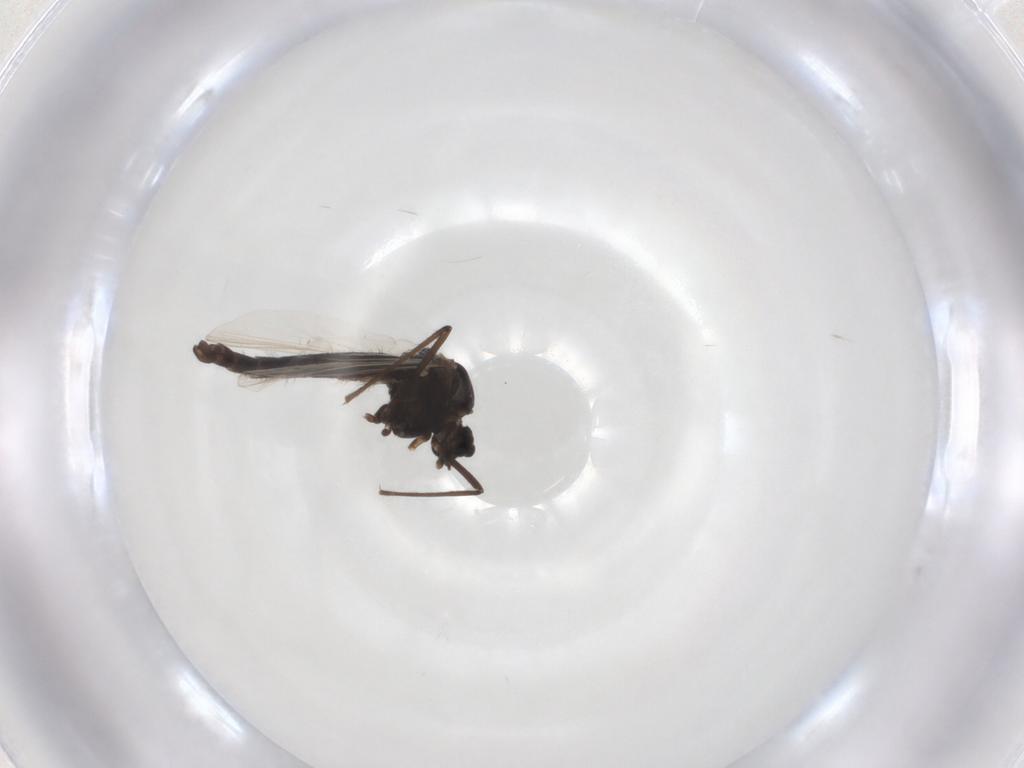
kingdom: Animalia
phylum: Arthropoda
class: Insecta
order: Diptera
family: Chironomidae
